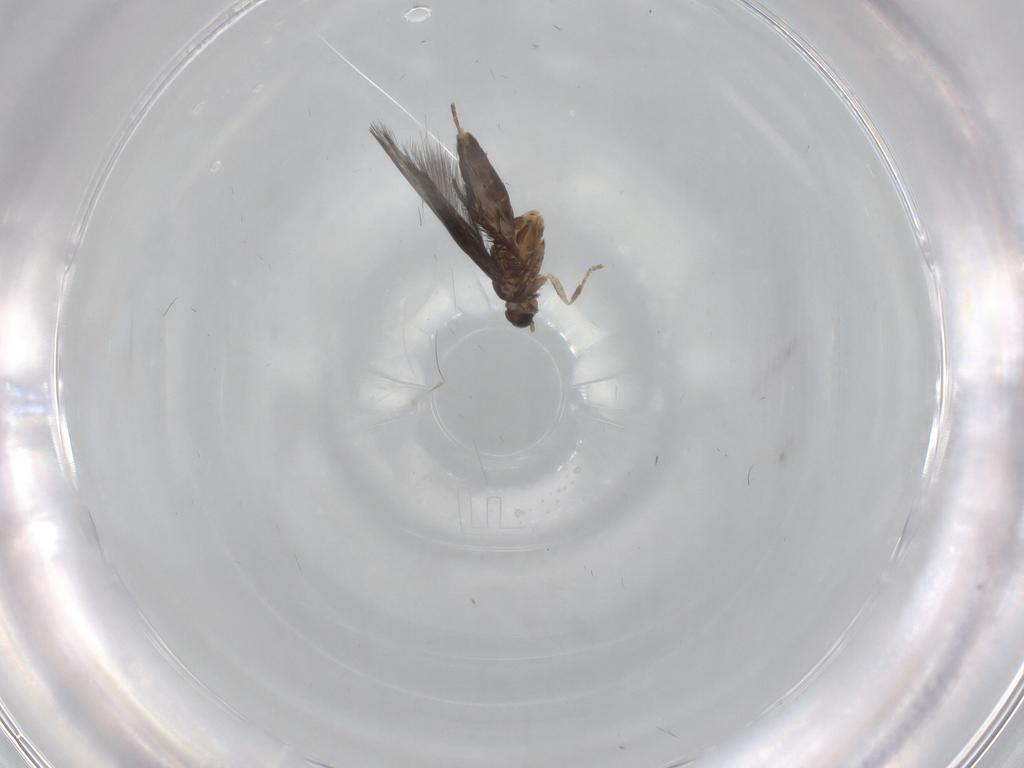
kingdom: Animalia
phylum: Arthropoda
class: Insecta
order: Trichoptera
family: Hydroptilidae
